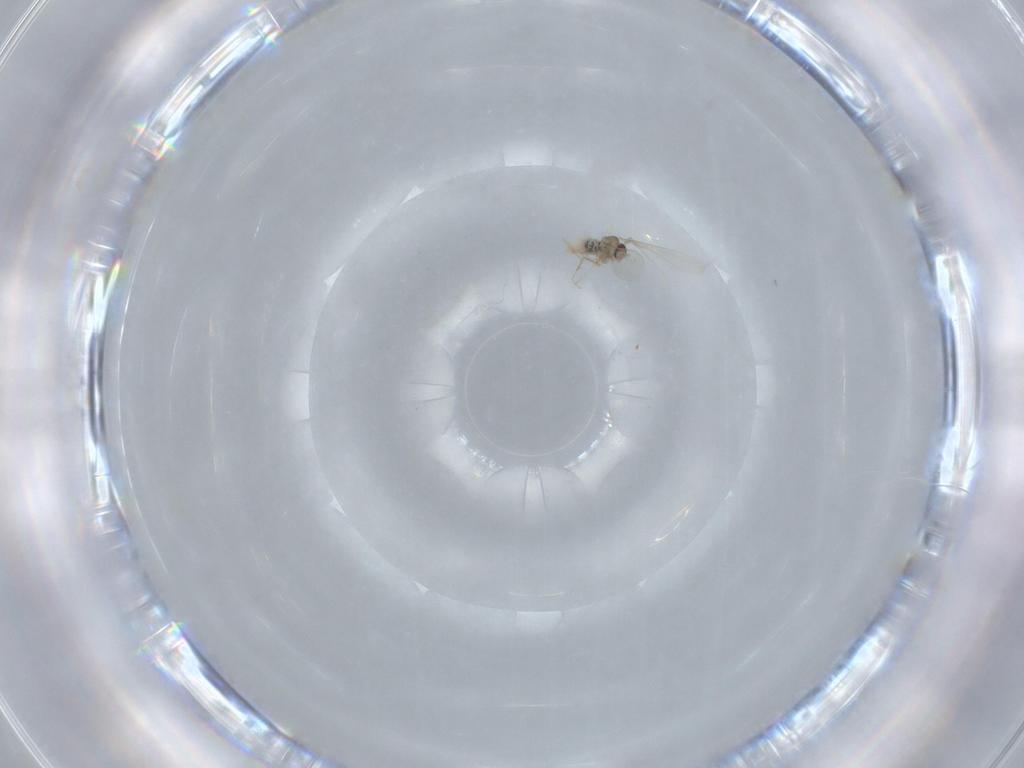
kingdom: Animalia
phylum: Arthropoda
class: Insecta
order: Diptera
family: Cecidomyiidae
